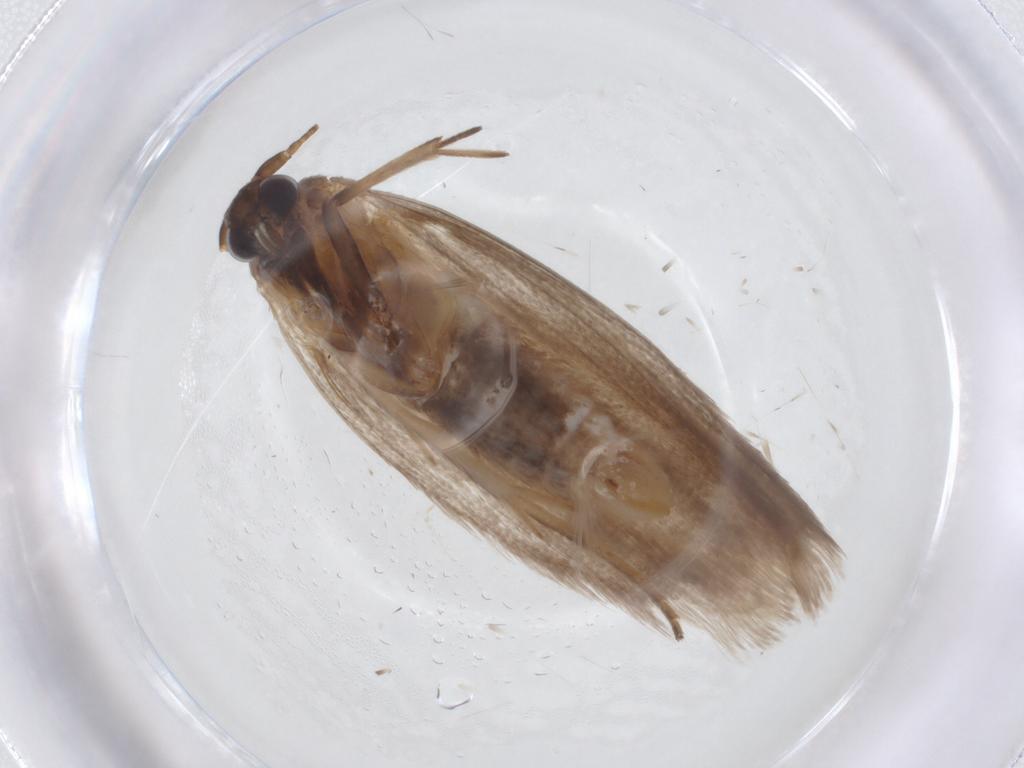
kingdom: Animalia
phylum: Arthropoda
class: Insecta
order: Lepidoptera
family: Roeslerstammiidae
